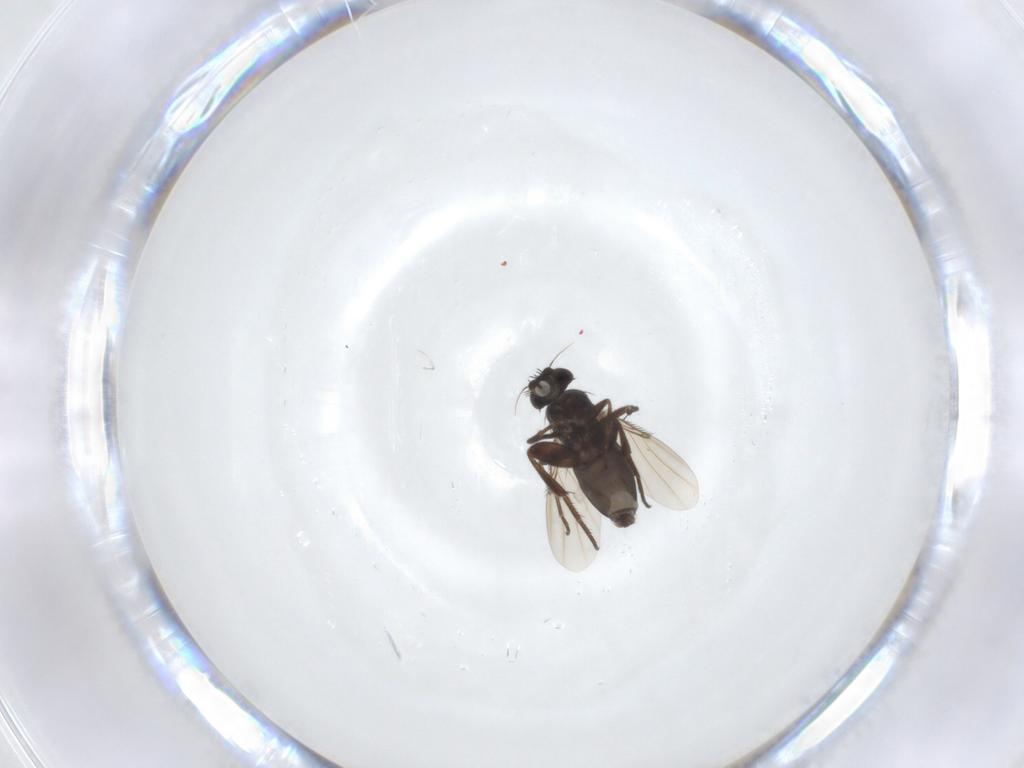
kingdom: Animalia
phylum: Arthropoda
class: Insecta
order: Diptera
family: Phoridae
